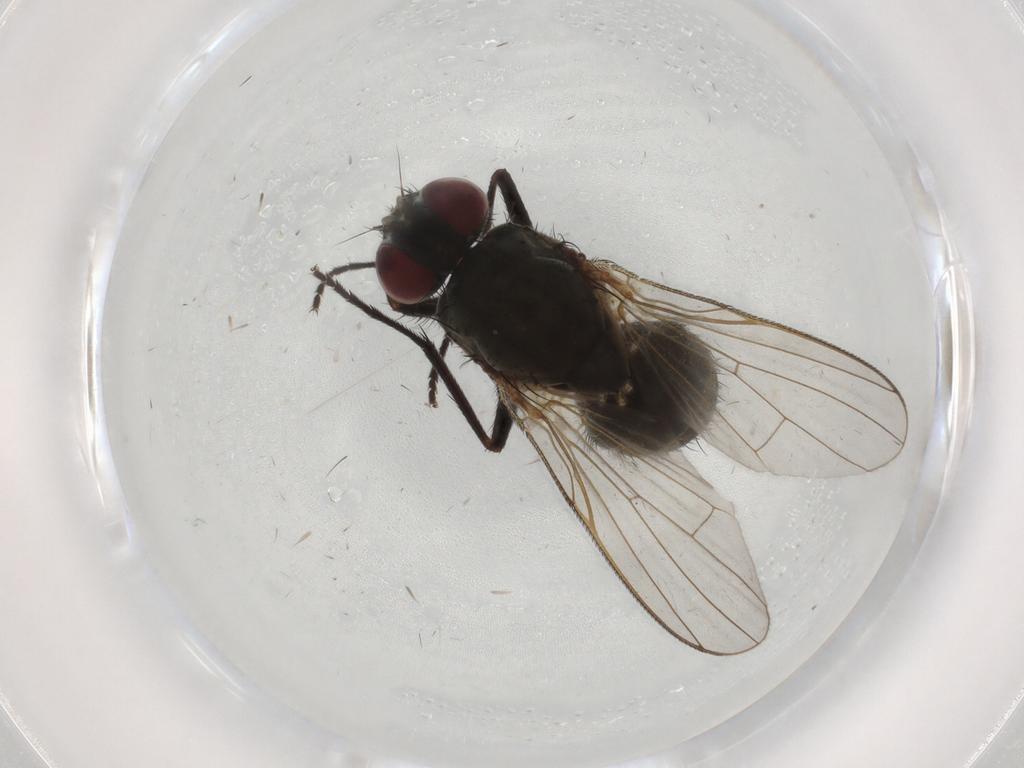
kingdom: Animalia
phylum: Arthropoda
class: Insecta
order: Diptera
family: Muscidae
